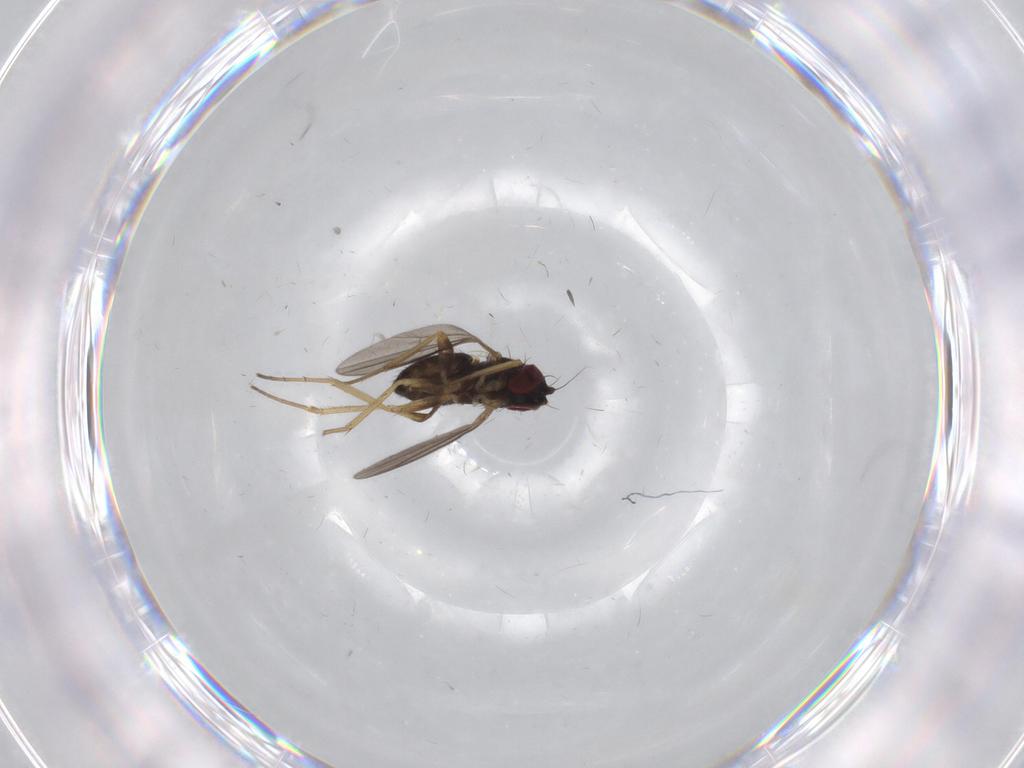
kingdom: Animalia
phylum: Arthropoda
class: Insecta
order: Diptera
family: Dolichopodidae
